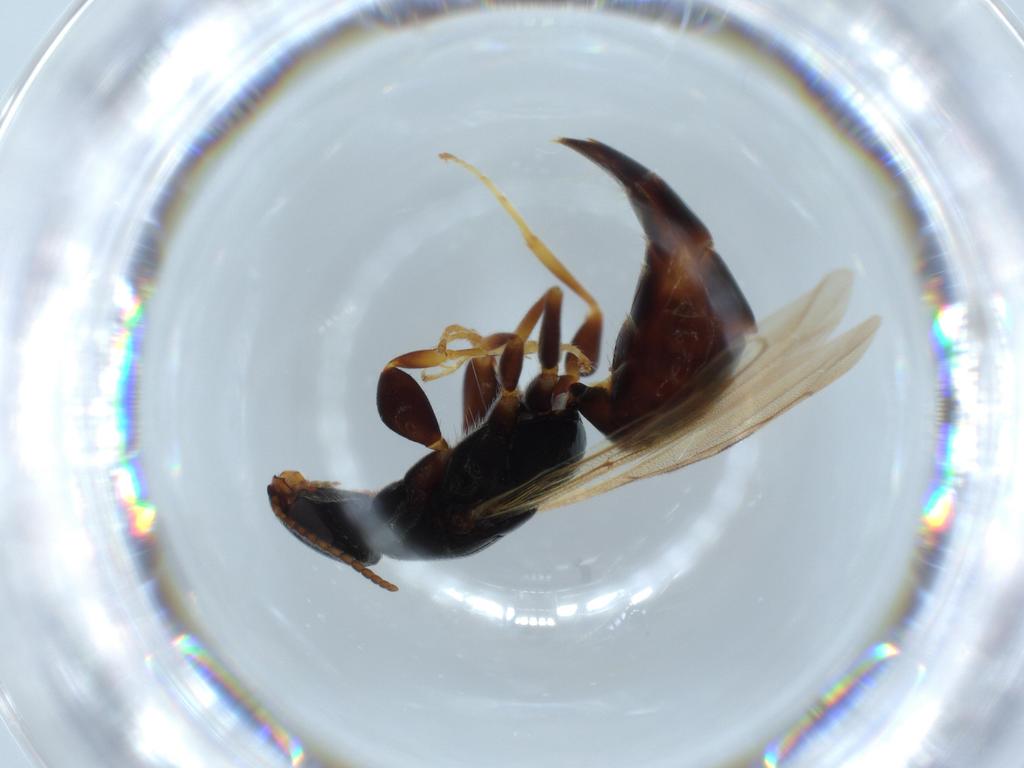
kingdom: Animalia
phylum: Arthropoda
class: Insecta
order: Hymenoptera
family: Bethylidae
